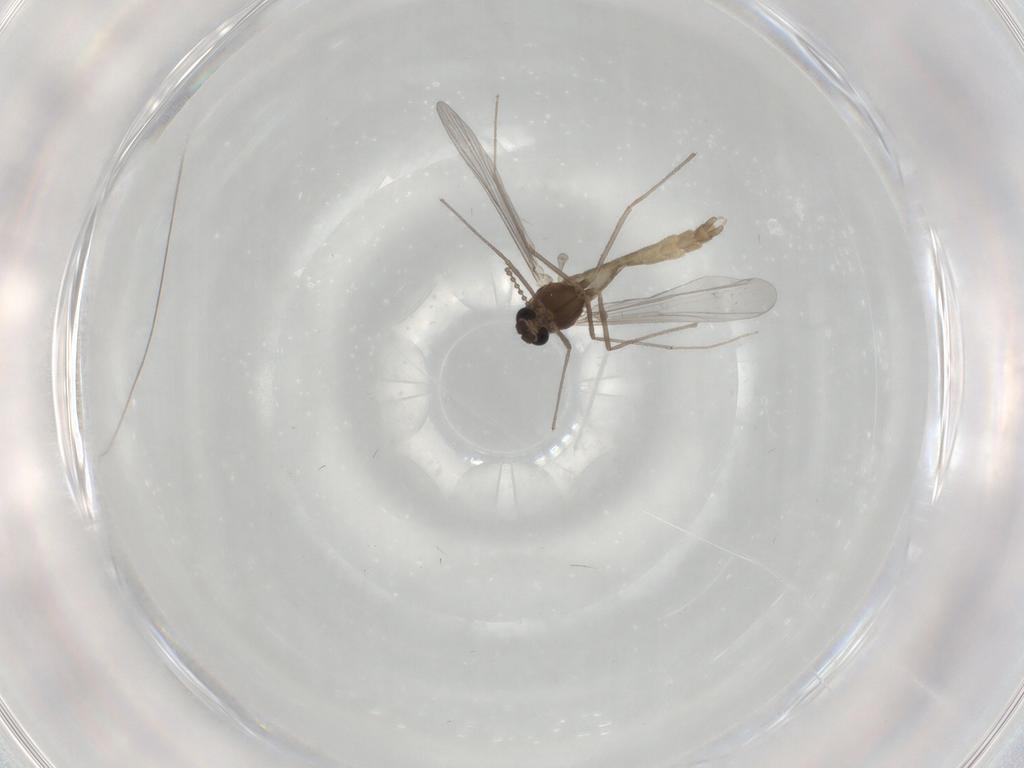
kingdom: Animalia
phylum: Arthropoda
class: Insecta
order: Diptera
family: Chironomidae
